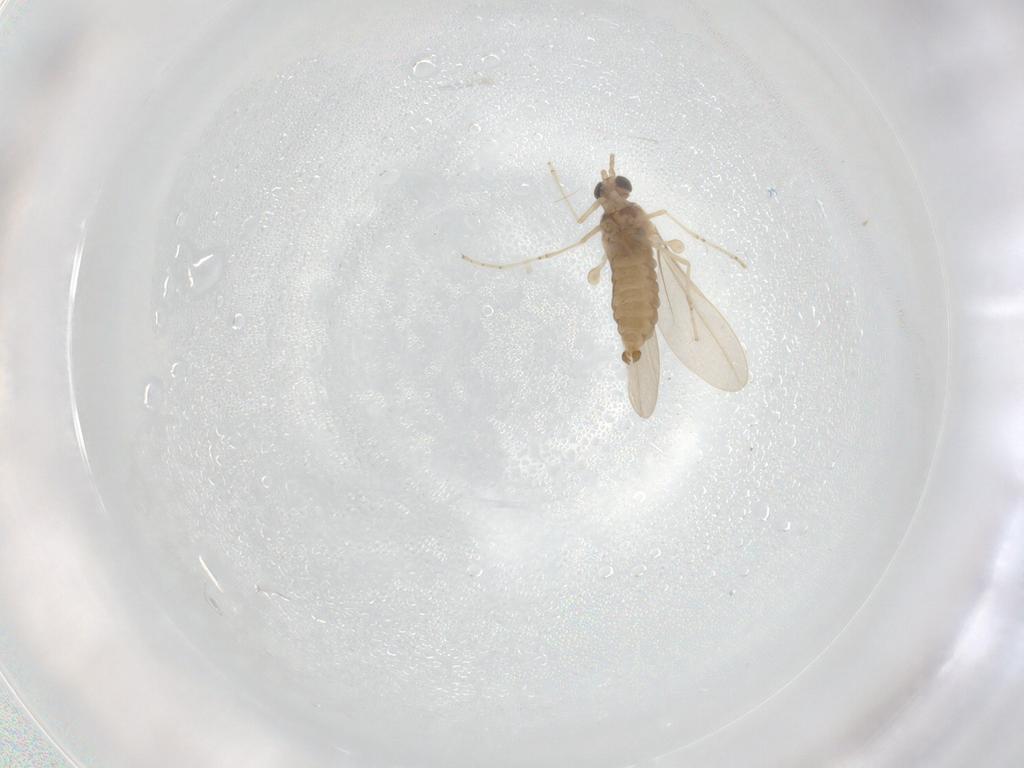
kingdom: Animalia
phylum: Arthropoda
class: Insecta
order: Diptera
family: Cecidomyiidae
